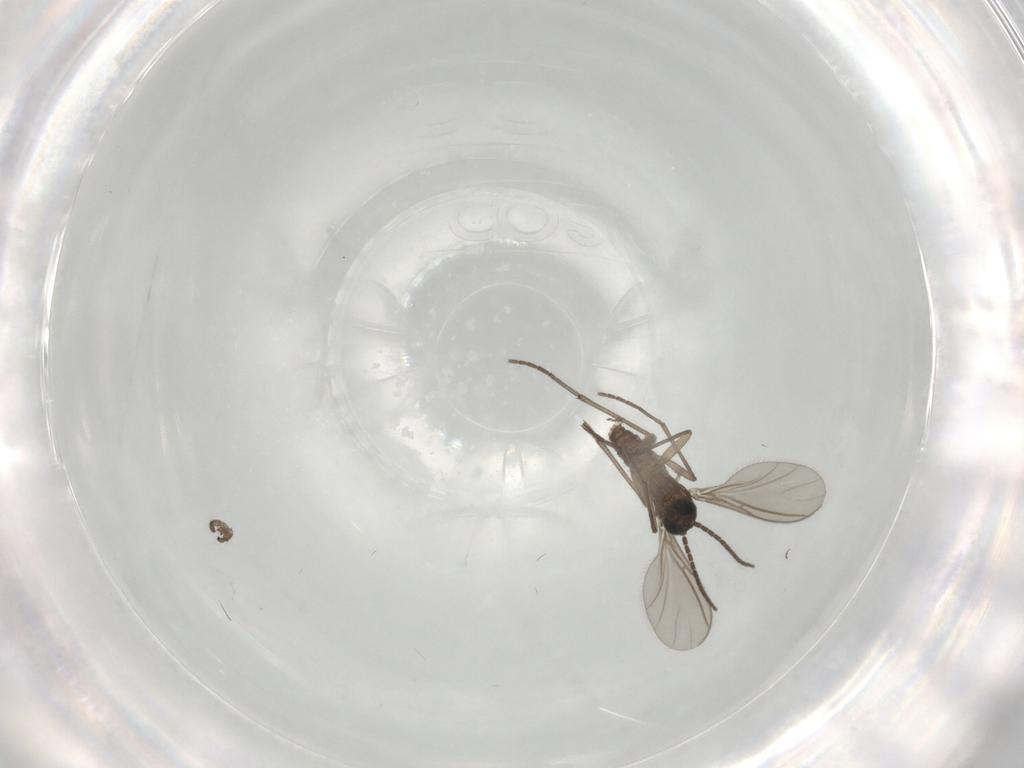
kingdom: Animalia
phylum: Arthropoda
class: Insecta
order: Diptera
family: Sciaridae
